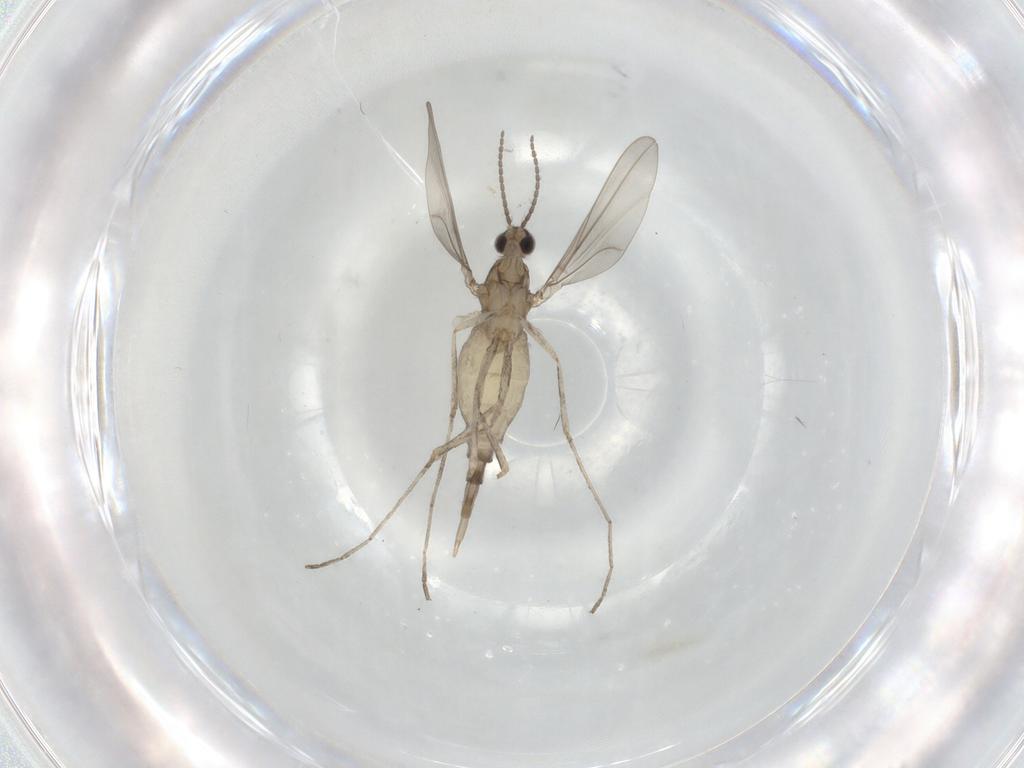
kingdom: Animalia
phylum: Arthropoda
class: Insecta
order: Diptera
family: Cecidomyiidae
